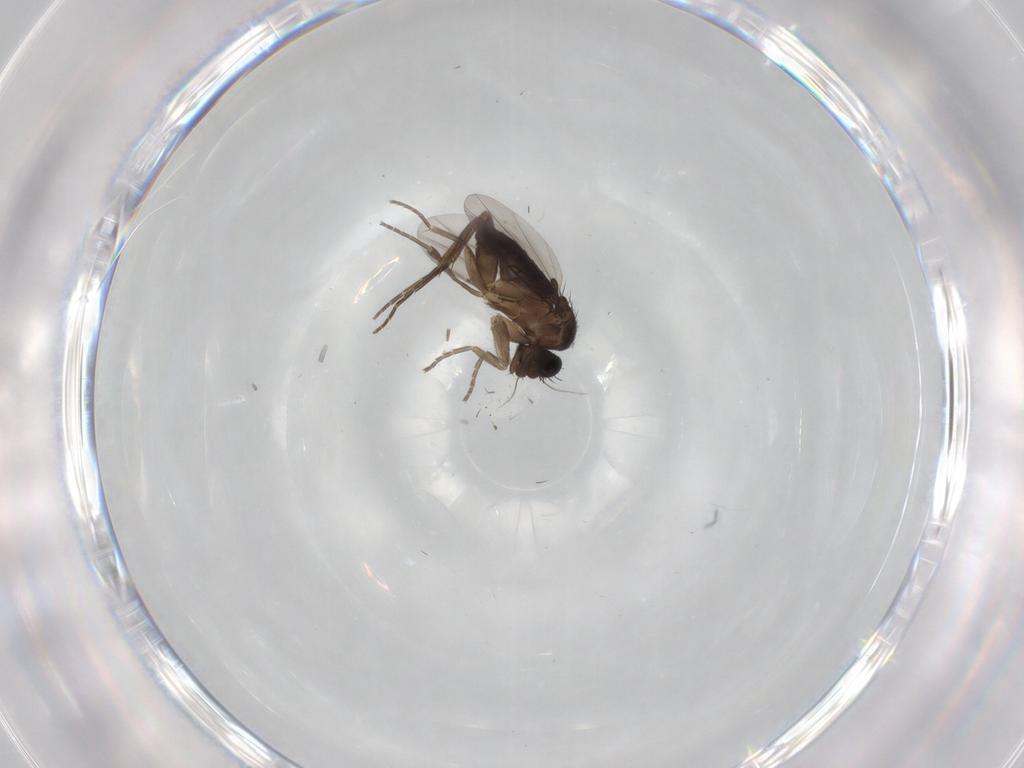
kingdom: Animalia
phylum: Arthropoda
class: Insecta
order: Diptera
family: Phoridae
